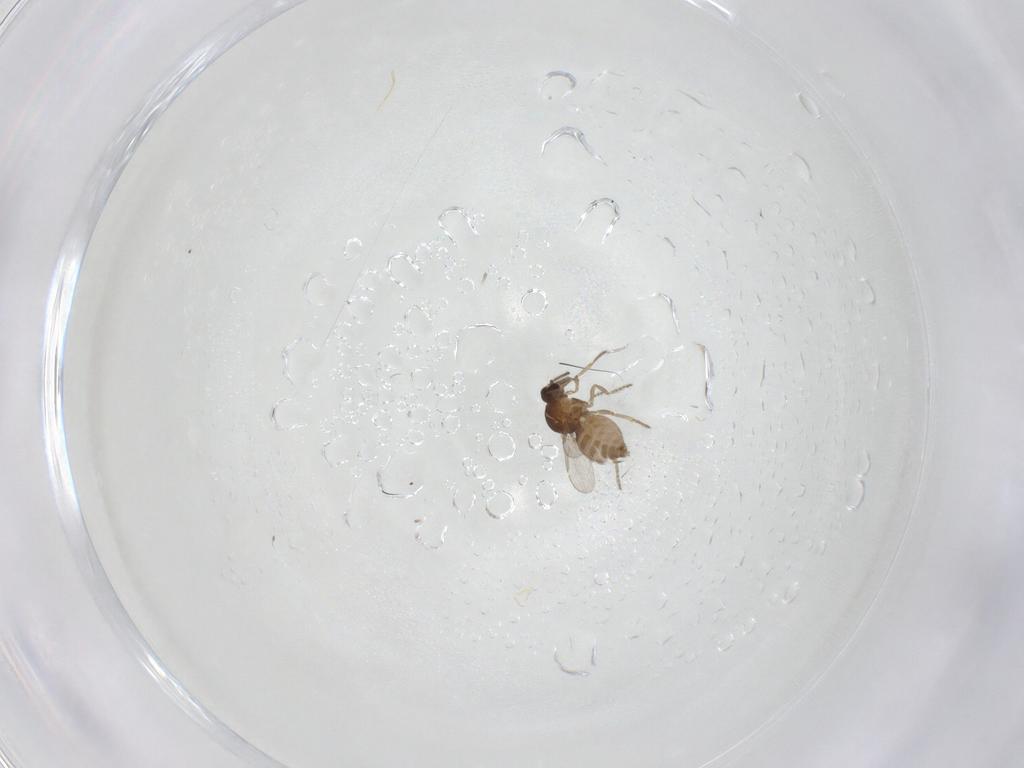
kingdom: Animalia
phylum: Arthropoda
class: Insecta
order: Diptera
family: Ceratopogonidae
